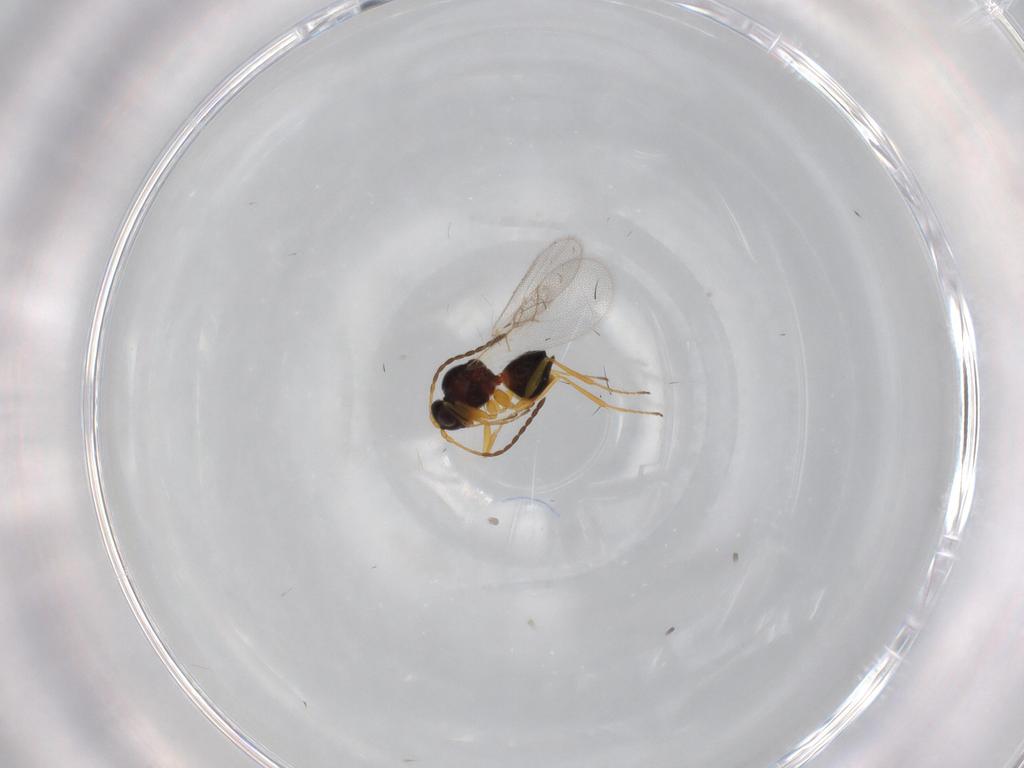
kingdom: Animalia
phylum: Arthropoda
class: Insecta
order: Hymenoptera
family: Figitidae
